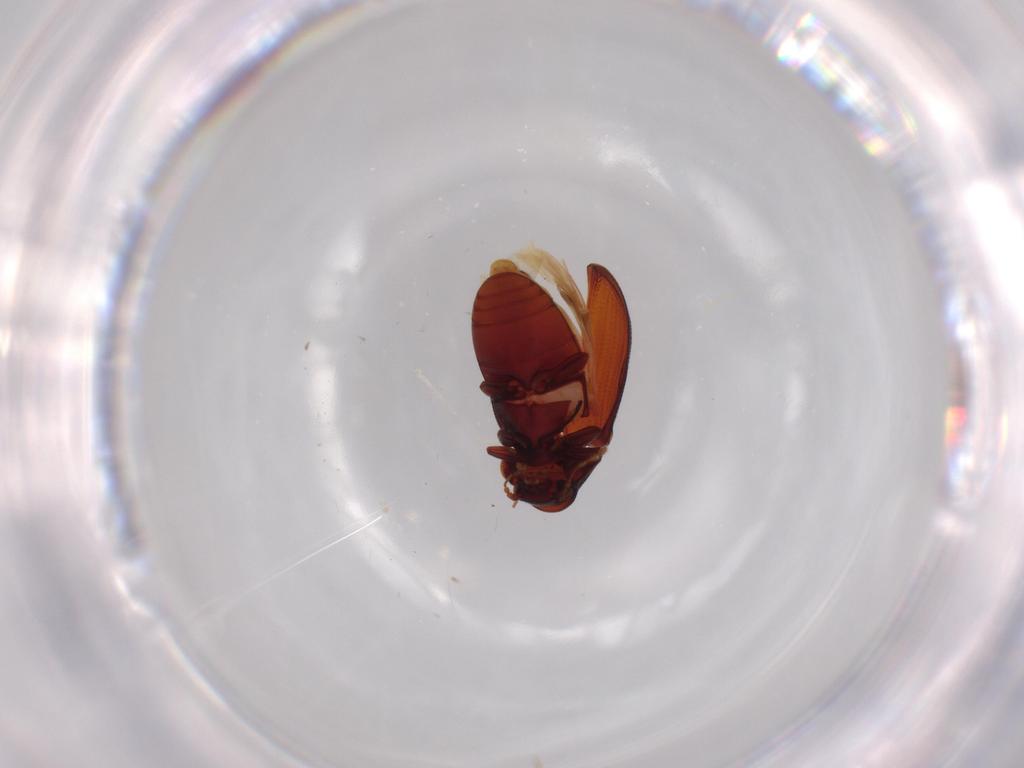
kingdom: Animalia
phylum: Arthropoda
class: Insecta
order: Coleoptera
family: Ptinidae
